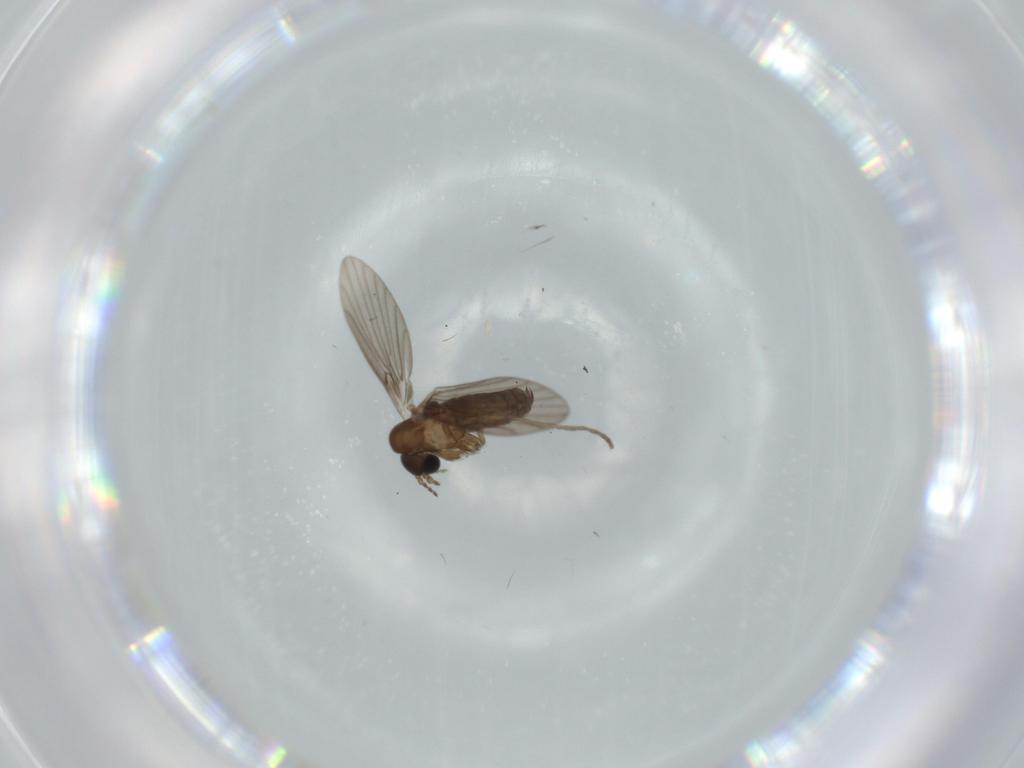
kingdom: Animalia
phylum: Arthropoda
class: Insecta
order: Diptera
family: Psychodidae
